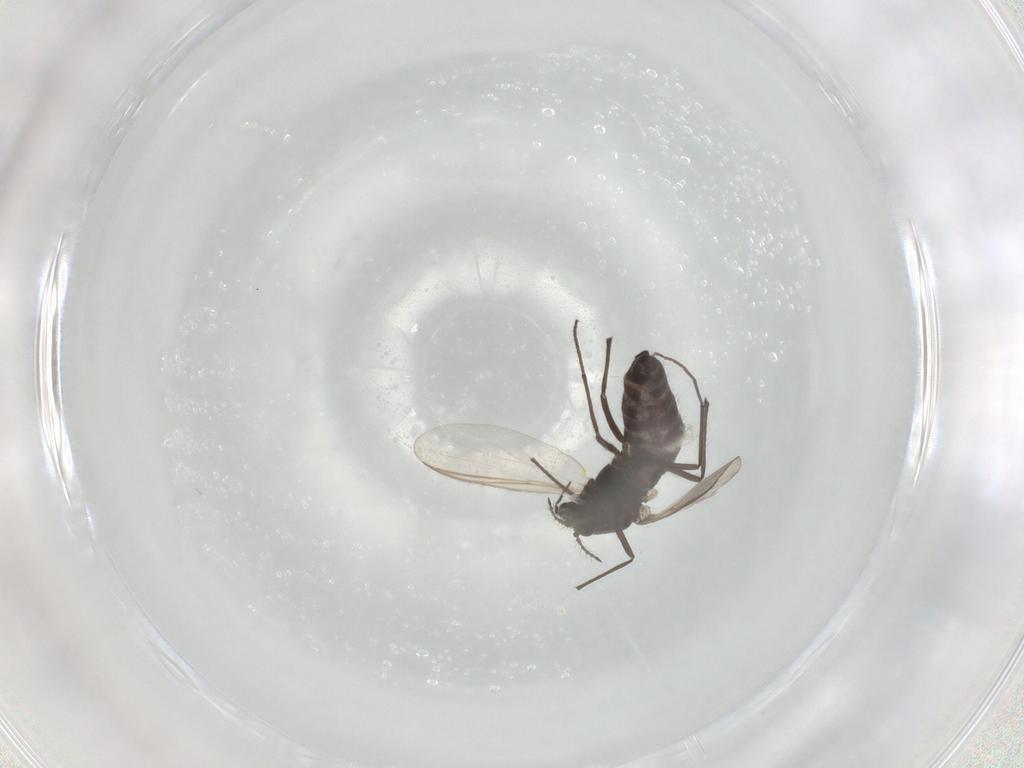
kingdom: Animalia
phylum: Arthropoda
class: Insecta
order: Diptera
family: Chironomidae
